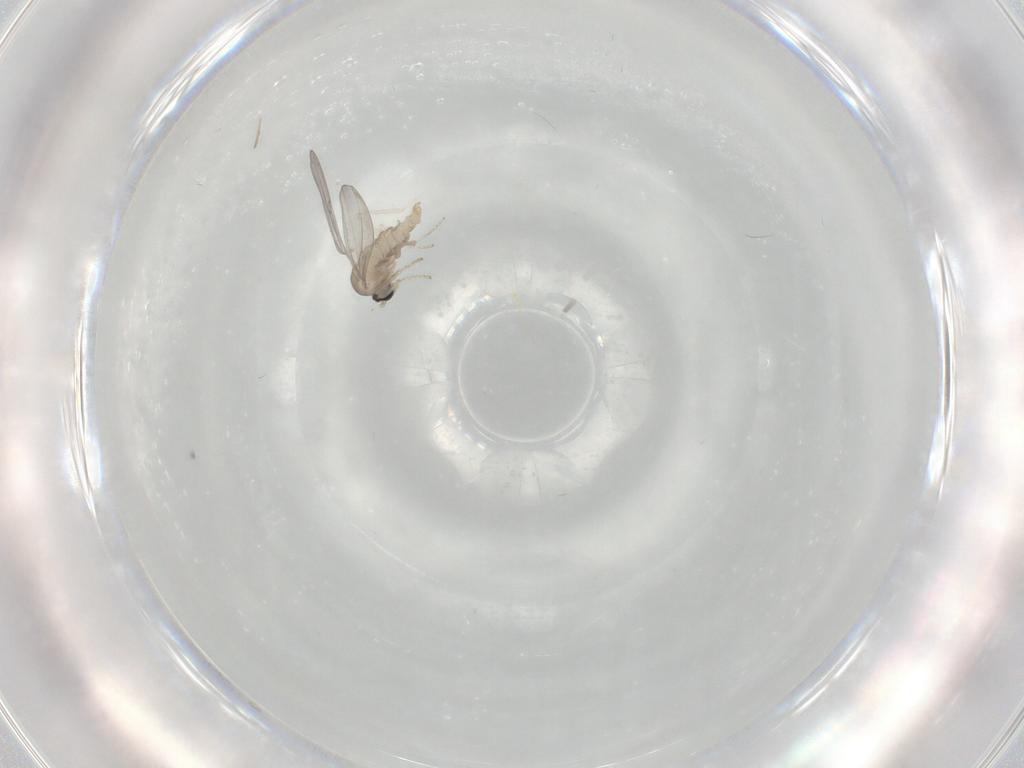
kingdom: Animalia
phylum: Arthropoda
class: Insecta
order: Diptera
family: Cecidomyiidae
